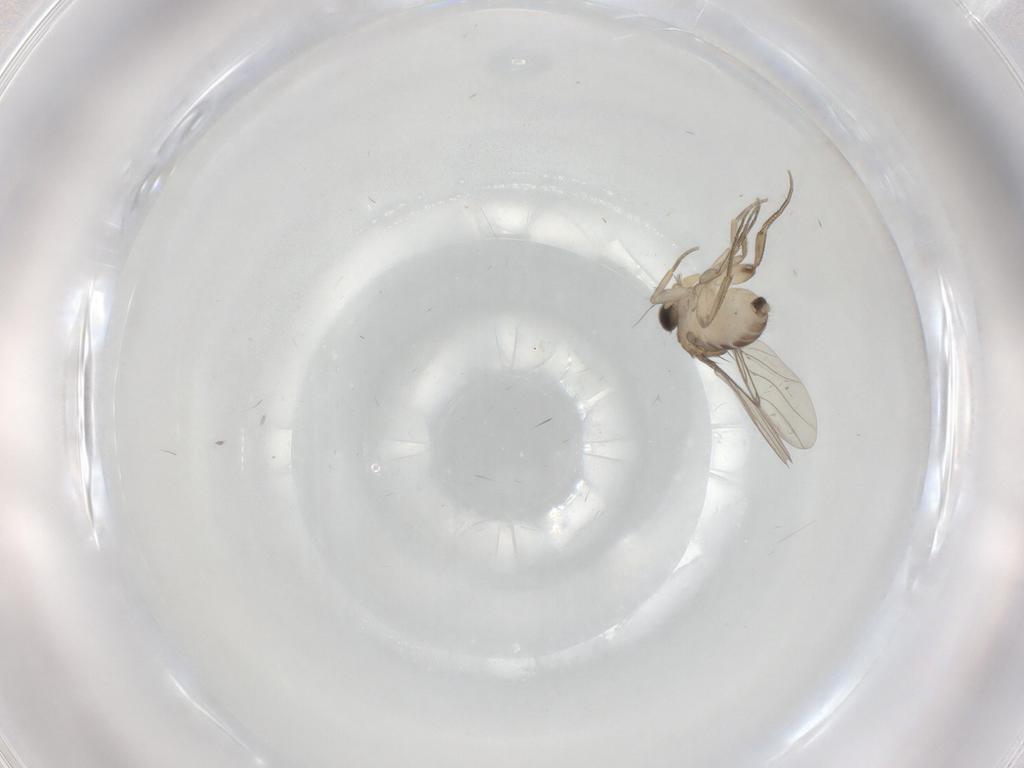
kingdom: Animalia
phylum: Arthropoda
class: Insecta
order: Diptera
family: Phoridae
